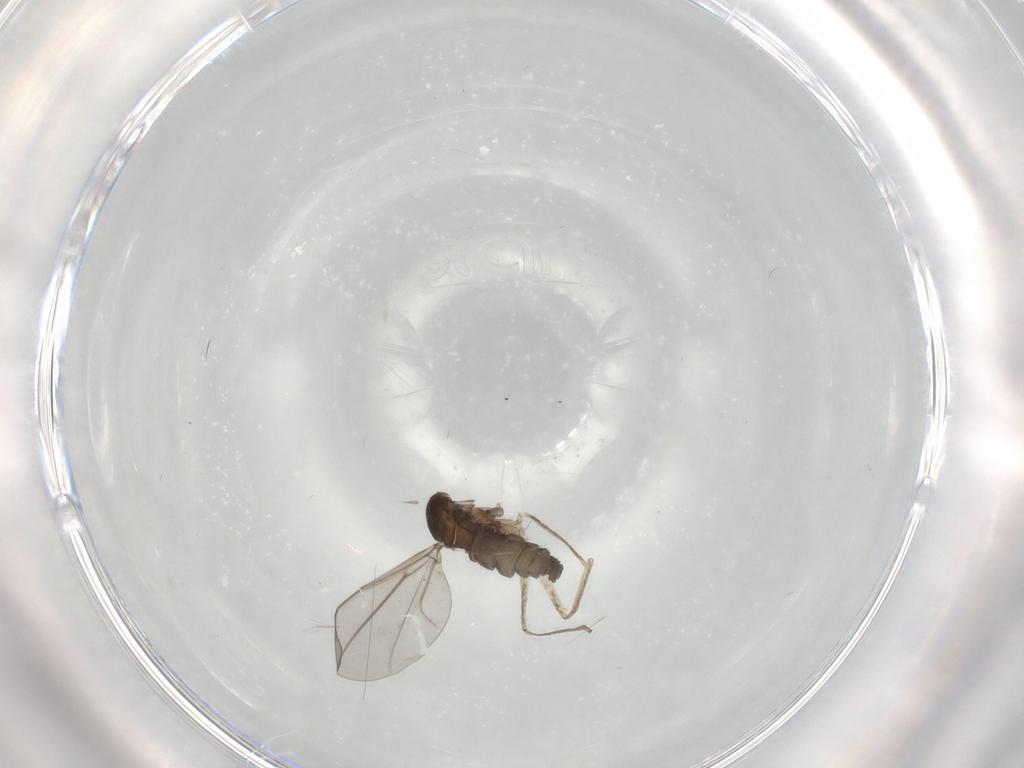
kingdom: Animalia
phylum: Arthropoda
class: Insecta
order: Diptera
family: Cecidomyiidae
